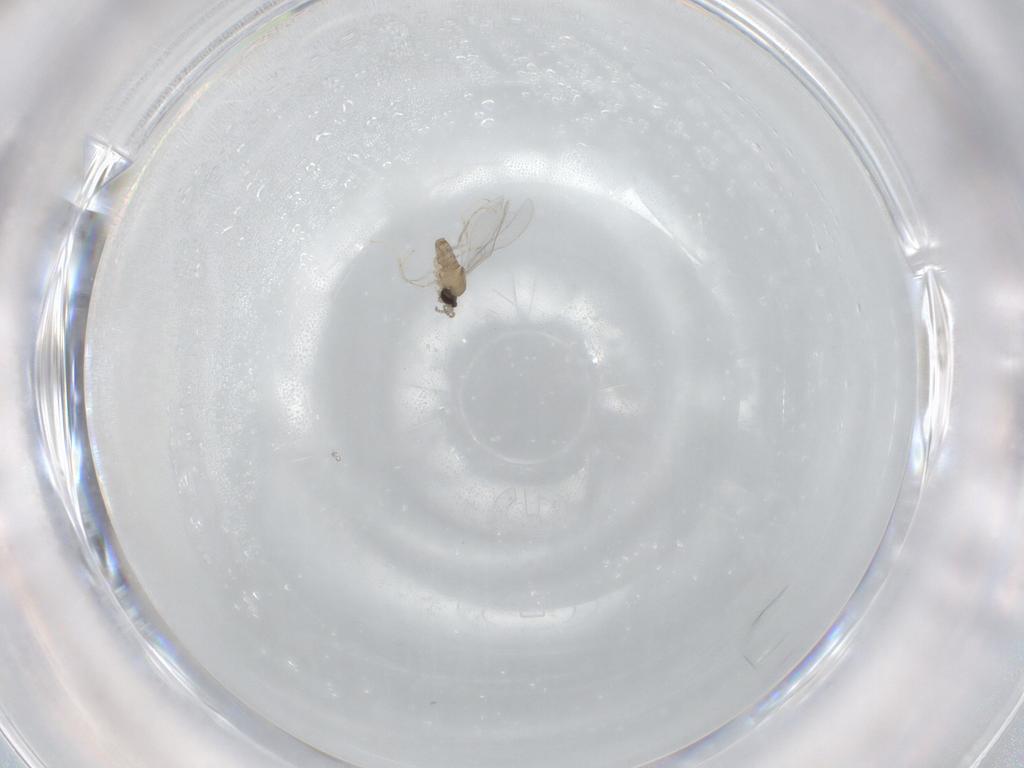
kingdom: Animalia
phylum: Arthropoda
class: Insecta
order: Diptera
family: Cecidomyiidae
